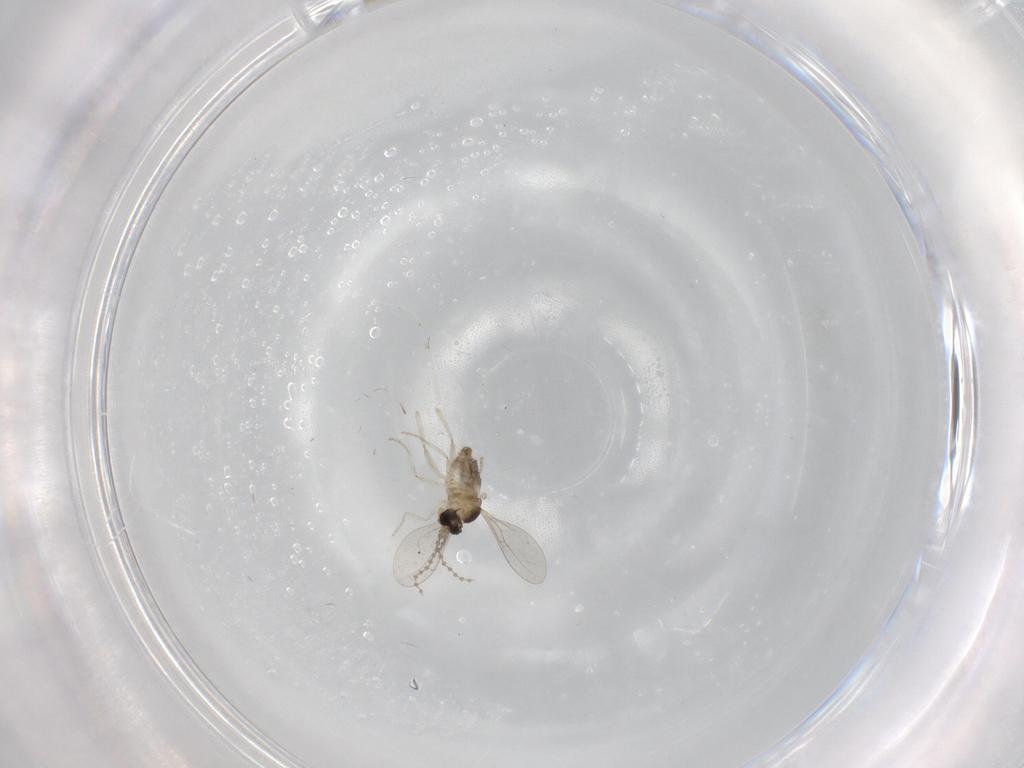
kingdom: Animalia
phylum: Arthropoda
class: Insecta
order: Diptera
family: Cecidomyiidae
